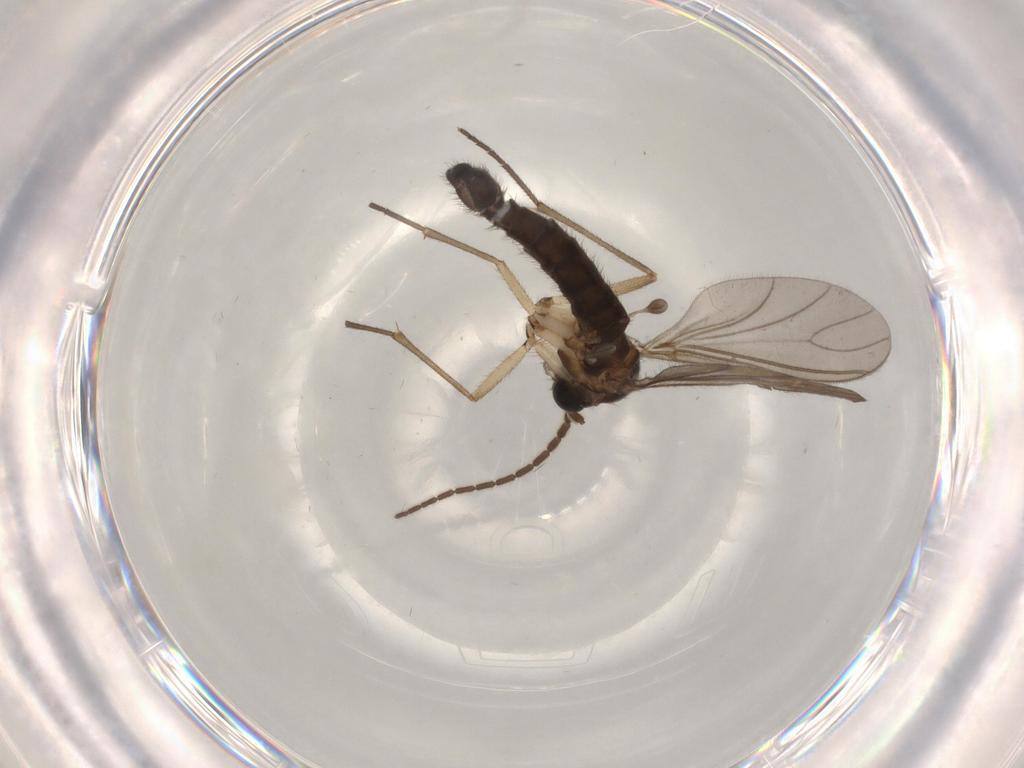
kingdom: Animalia
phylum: Arthropoda
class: Insecta
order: Diptera
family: Sciaridae
